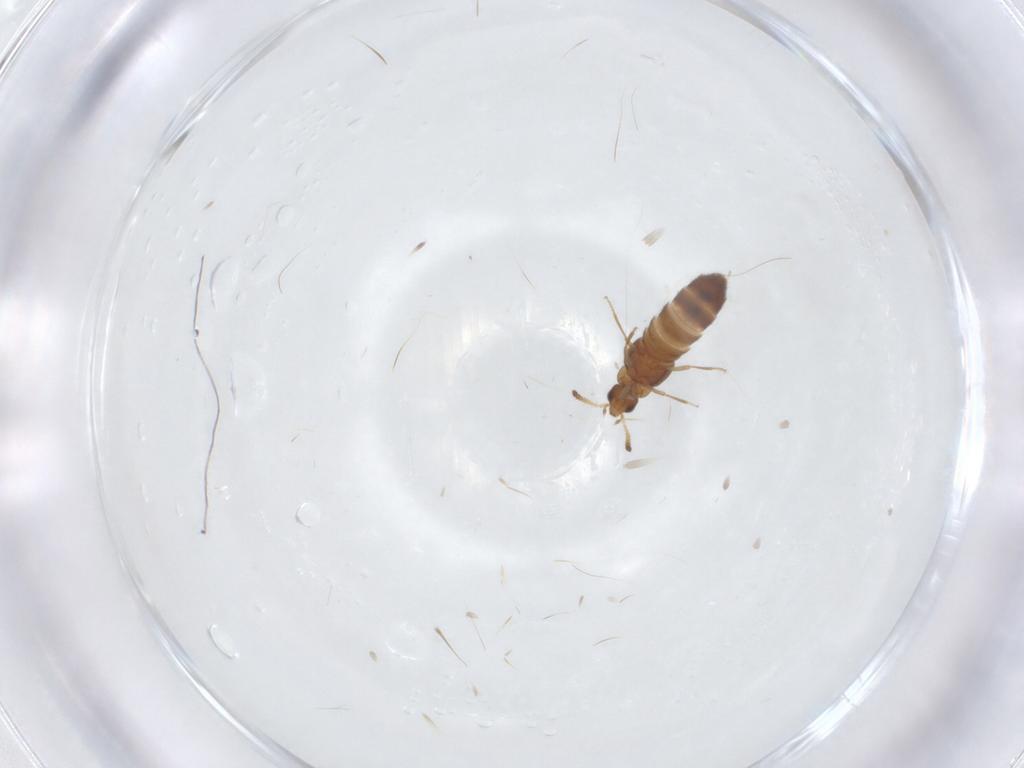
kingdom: Animalia
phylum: Arthropoda
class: Insecta
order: Coleoptera
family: Staphylinidae
